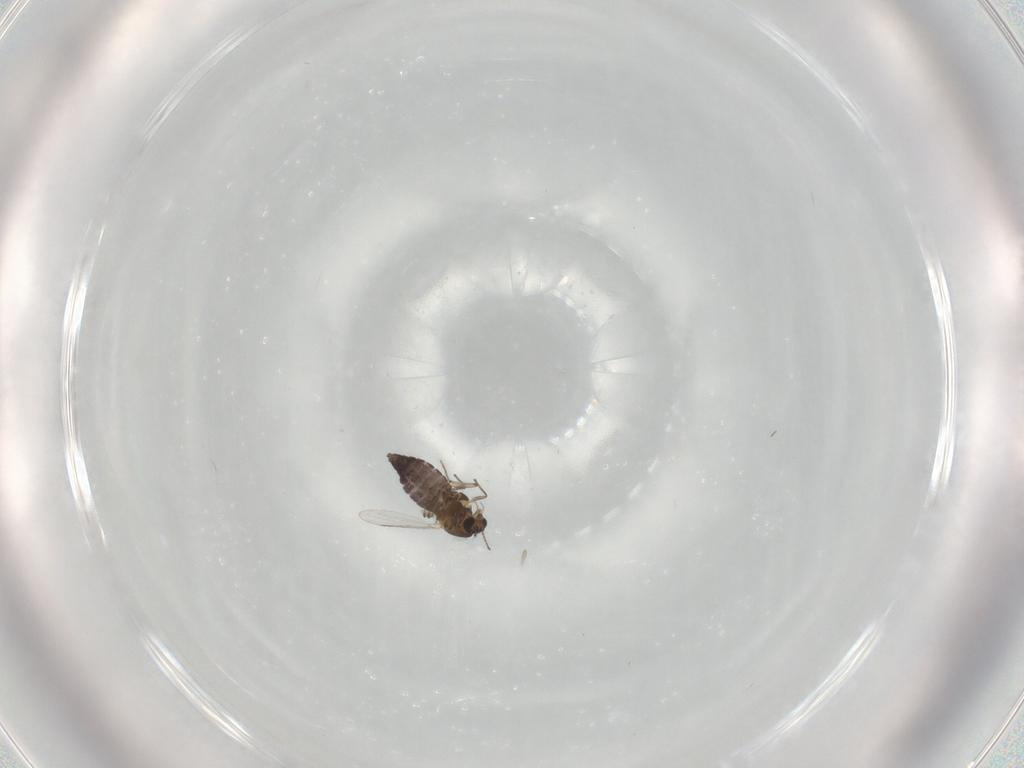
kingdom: Animalia
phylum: Arthropoda
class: Insecta
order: Diptera
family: Chironomidae
